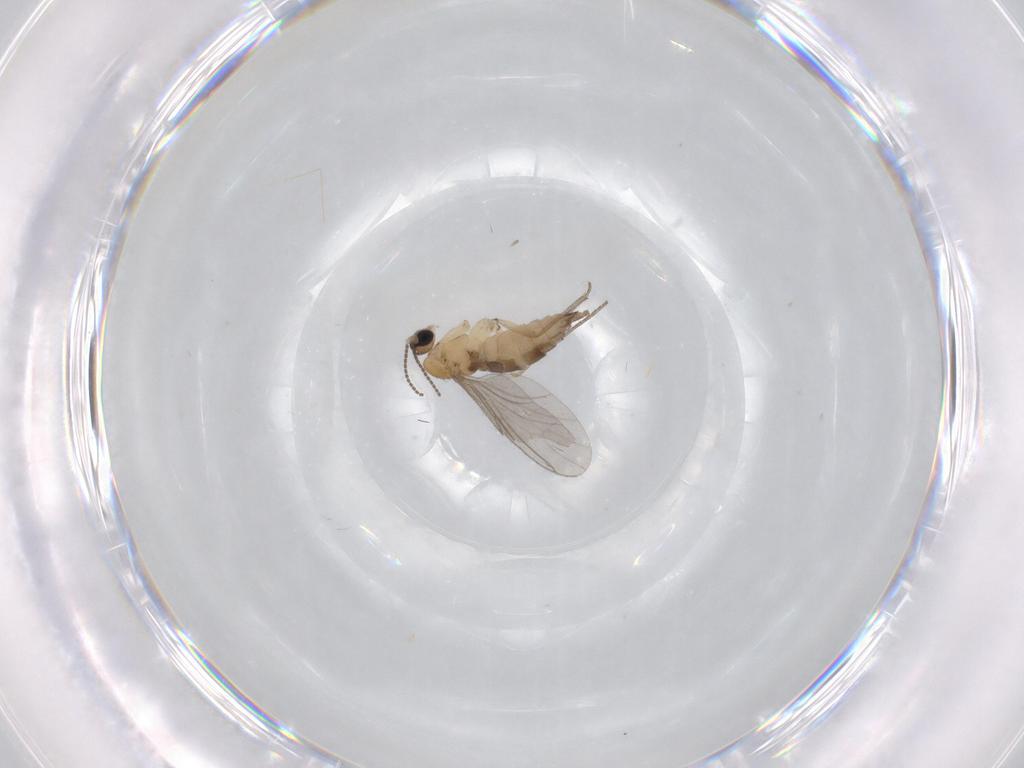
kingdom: Animalia
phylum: Arthropoda
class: Insecta
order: Diptera
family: Sciaridae
